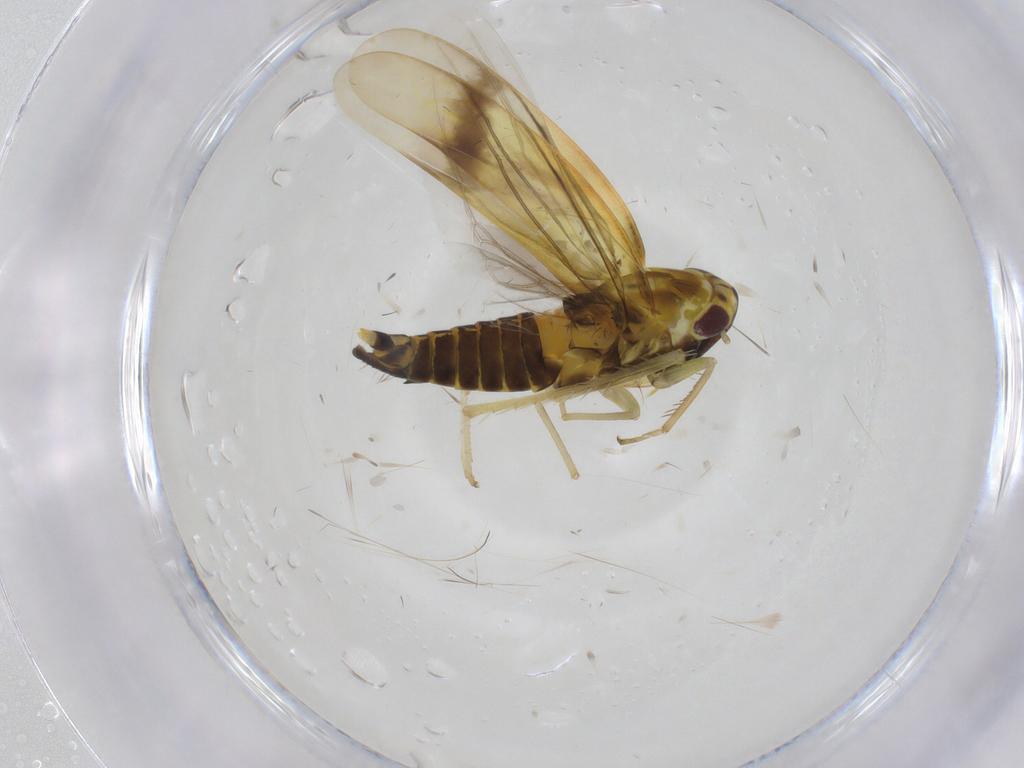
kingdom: Animalia
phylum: Arthropoda
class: Insecta
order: Hemiptera
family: Cicadellidae
